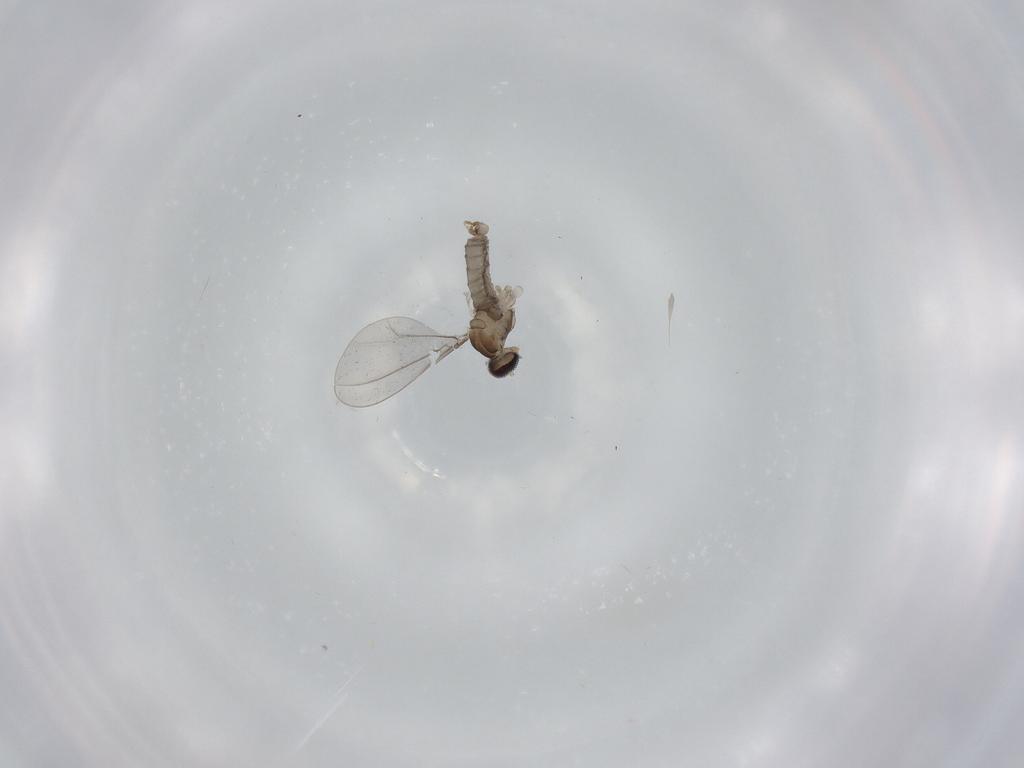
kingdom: Animalia
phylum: Arthropoda
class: Insecta
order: Diptera
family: Cecidomyiidae
